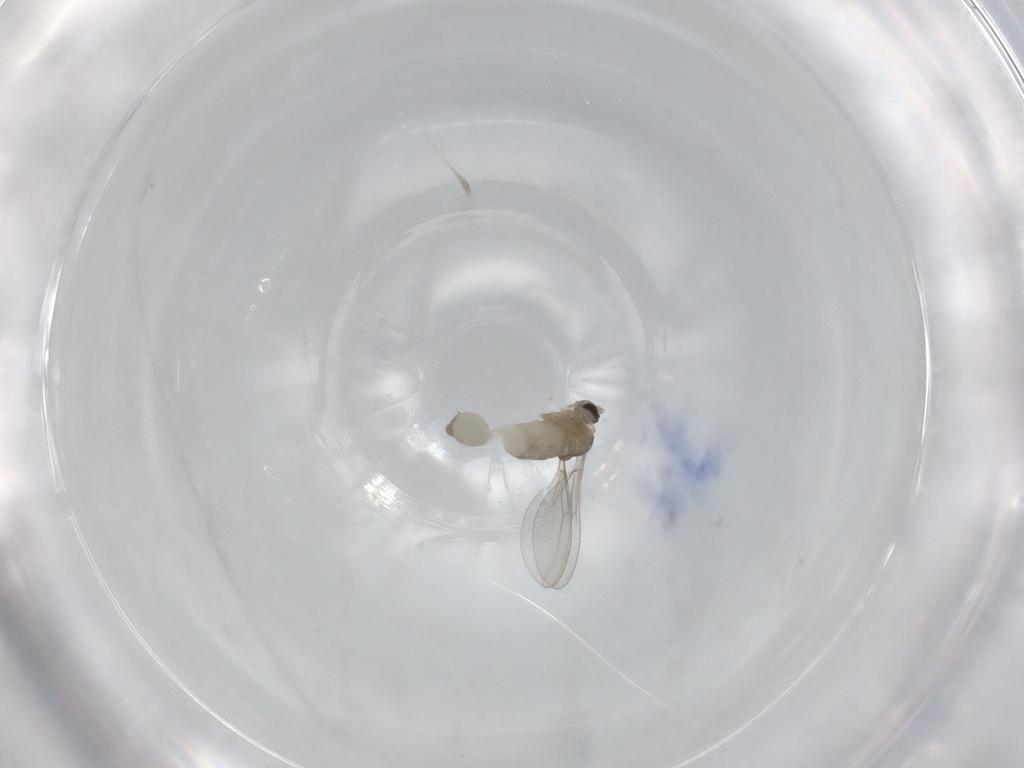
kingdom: Animalia
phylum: Arthropoda
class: Insecta
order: Diptera
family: Cecidomyiidae
